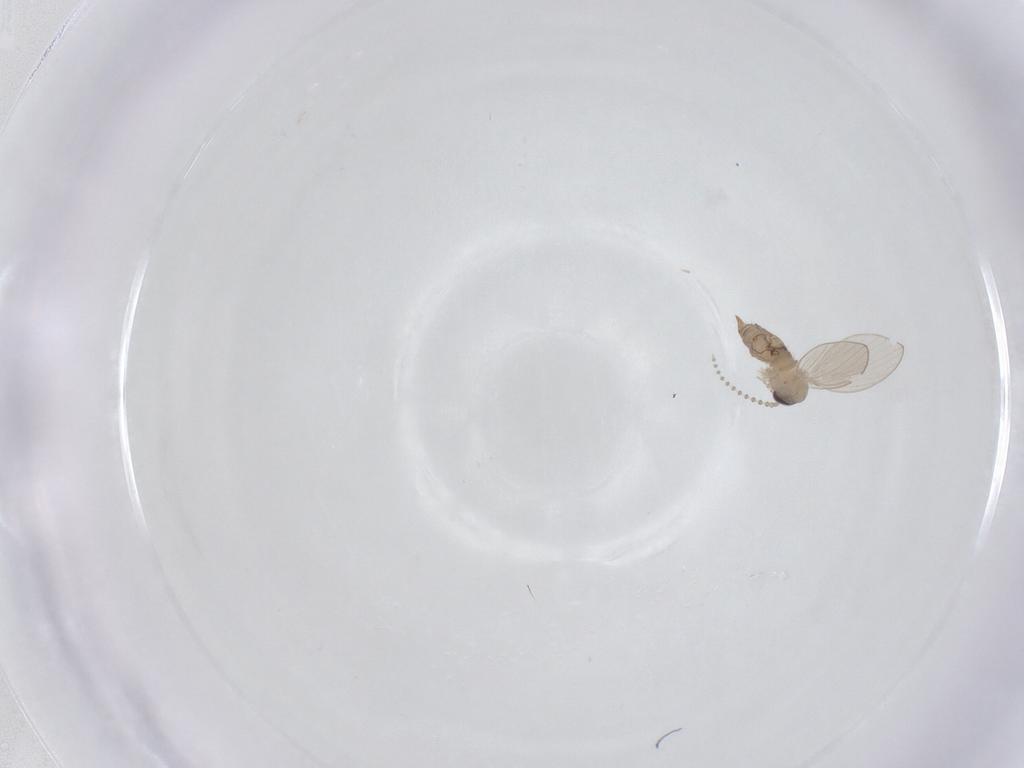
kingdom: Animalia
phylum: Arthropoda
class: Insecta
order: Diptera
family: Psychodidae
